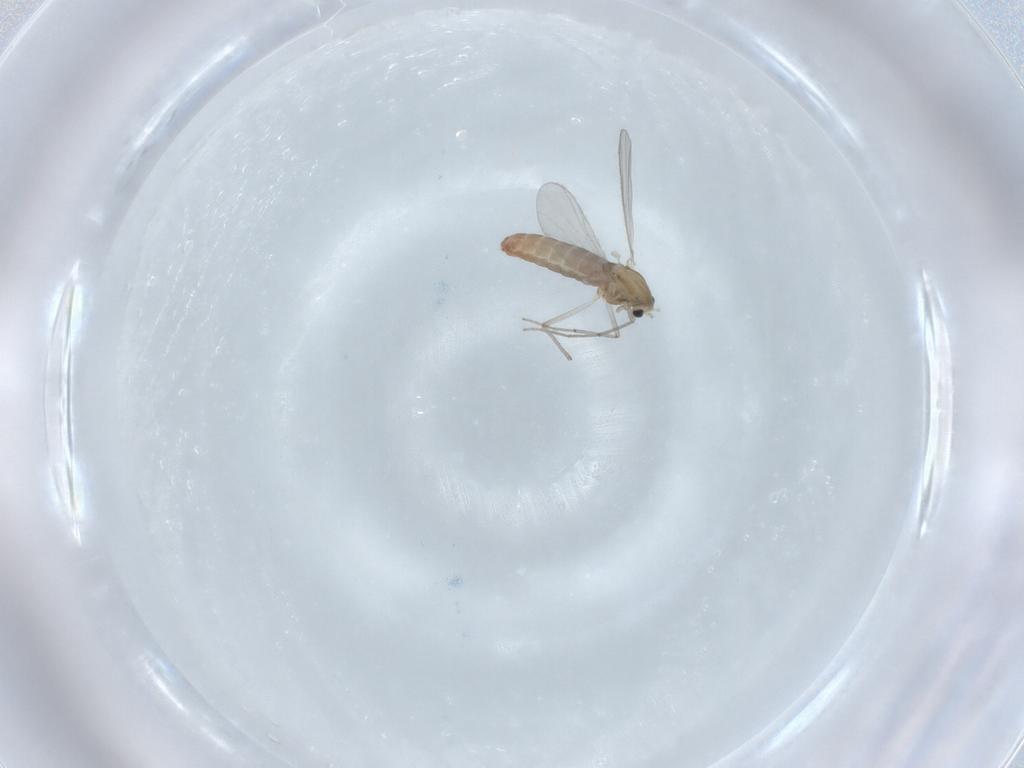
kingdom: Animalia
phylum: Arthropoda
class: Insecta
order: Diptera
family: Chironomidae
